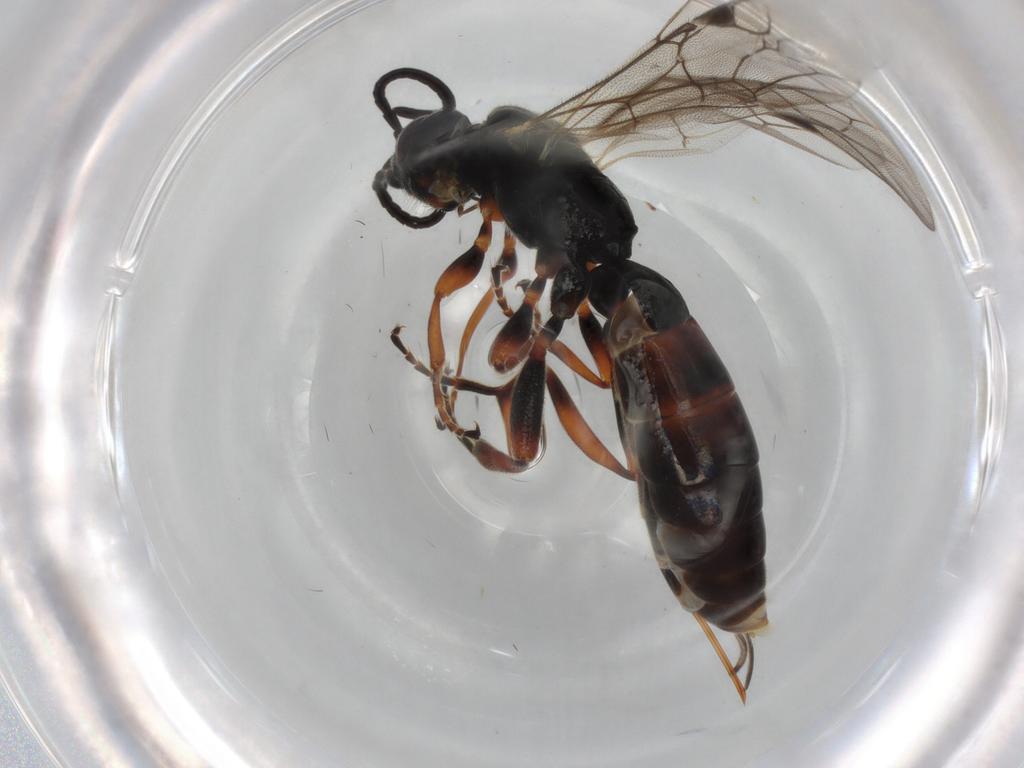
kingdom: Animalia
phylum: Arthropoda
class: Insecta
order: Hymenoptera
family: Ichneumonidae
